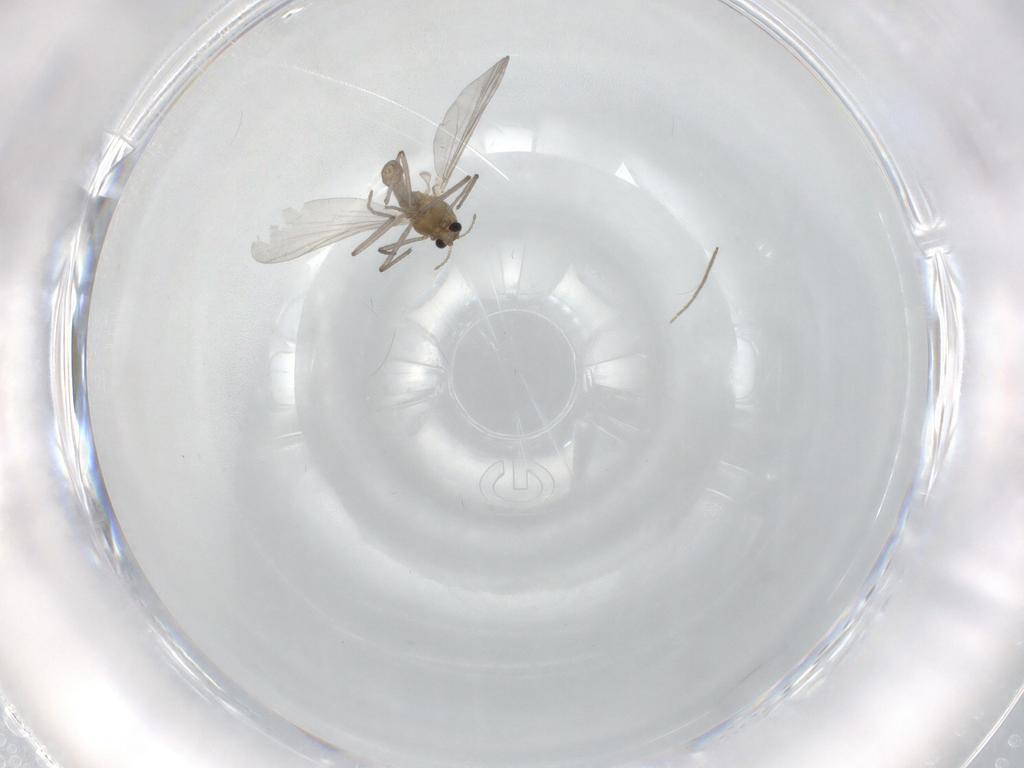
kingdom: Animalia
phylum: Arthropoda
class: Insecta
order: Diptera
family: Chironomidae
